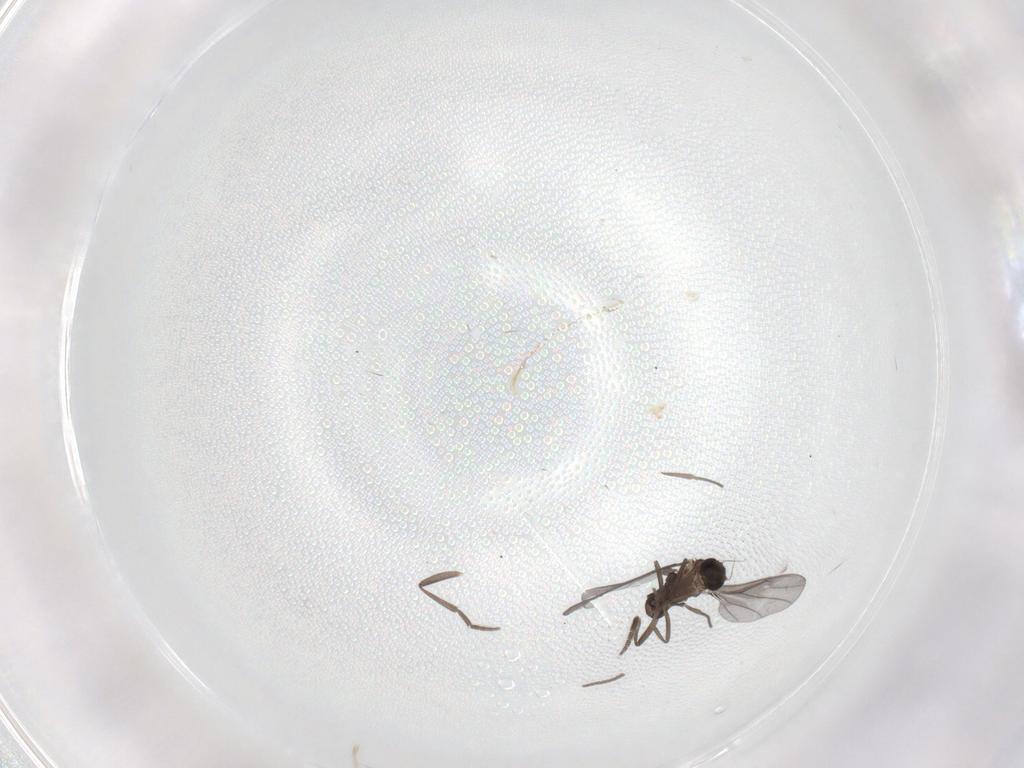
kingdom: Animalia
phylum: Arthropoda
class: Insecta
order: Diptera
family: Cecidomyiidae
